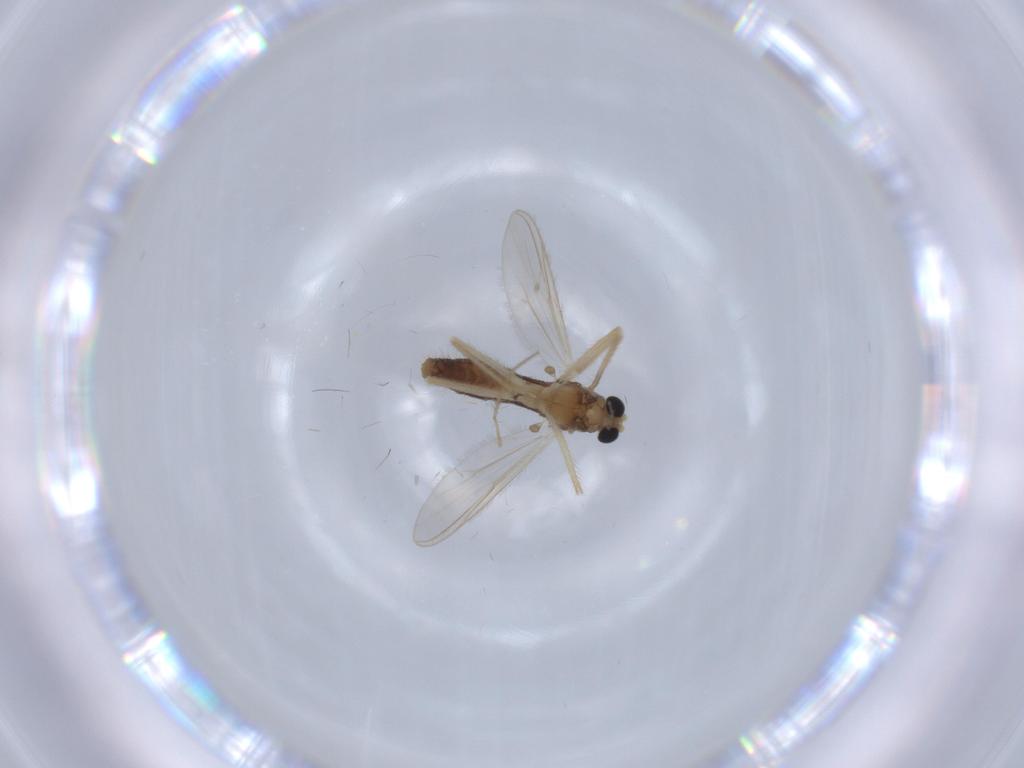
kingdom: Animalia
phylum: Arthropoda
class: Insecta
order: Diptera
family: Chironomidae
